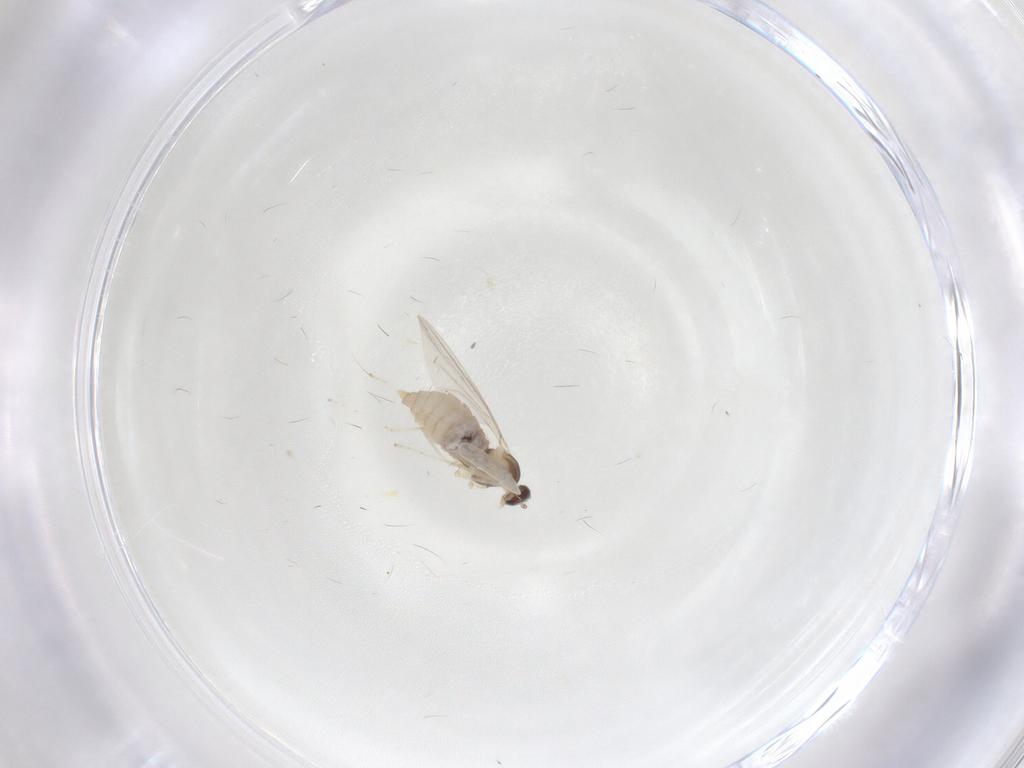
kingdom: Animalia
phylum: Arthropoda
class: Insecta
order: Diptera
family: Cecidomyiidae
